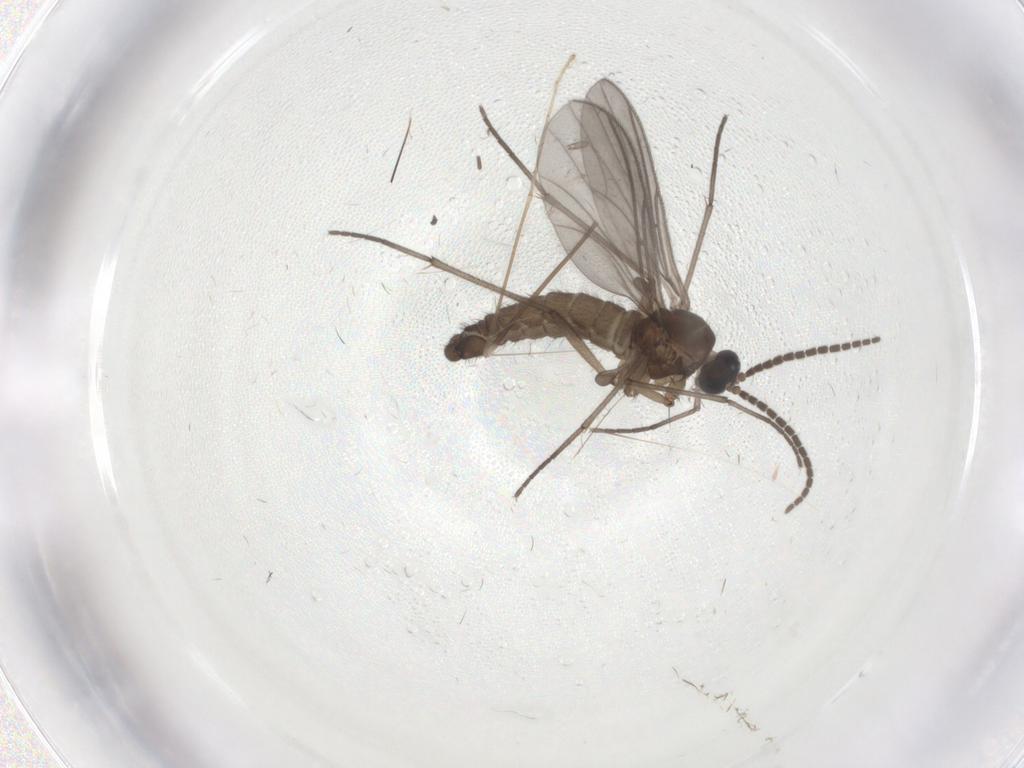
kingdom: Animalia
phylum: Arthropoda
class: Insecta
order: Diptera
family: Sciaridae
